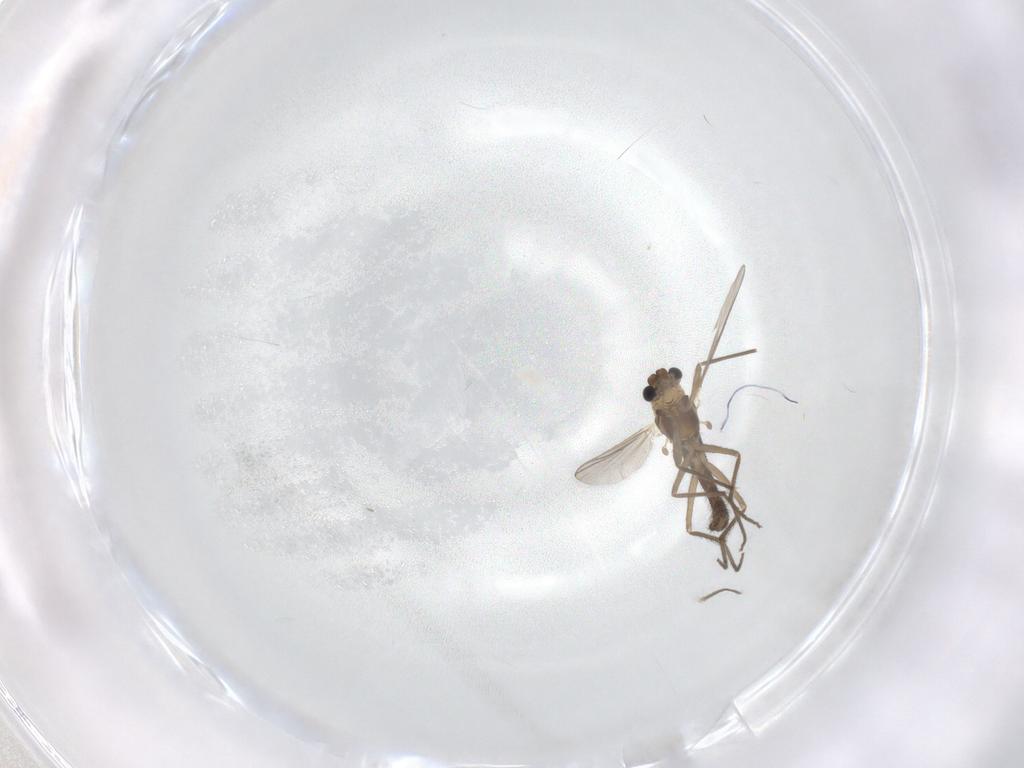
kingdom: Animalia
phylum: Arthropoda
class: Insecta
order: Diptera
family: Chironomidae
